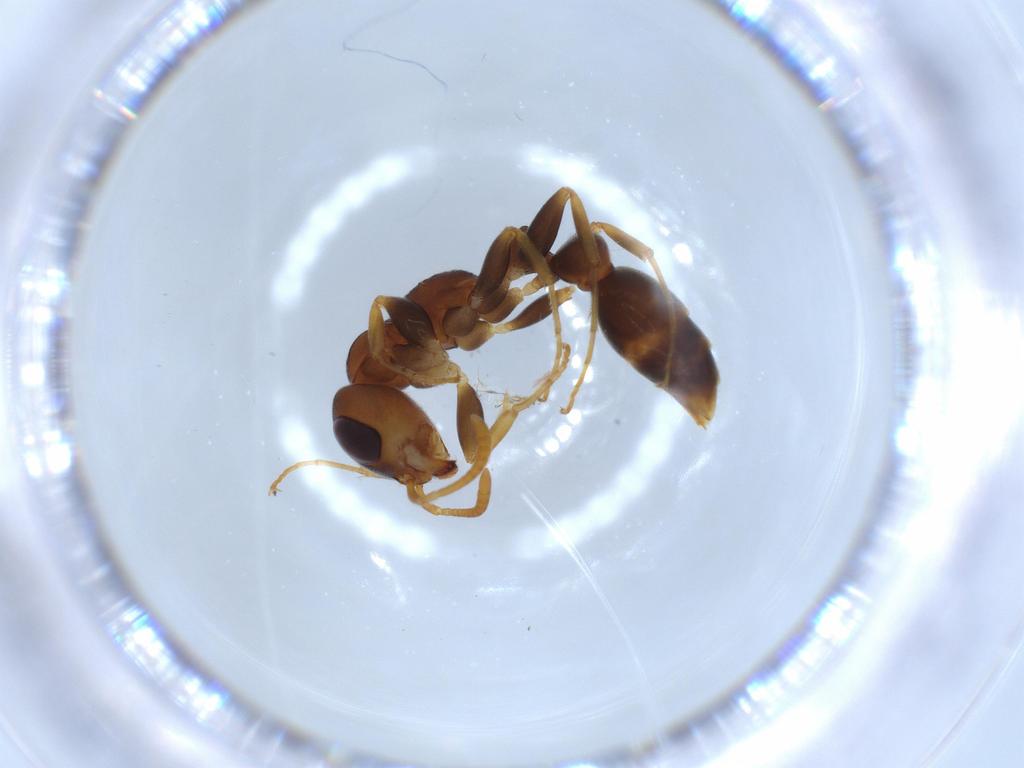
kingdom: Animalia
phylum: Arthropoda
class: Insecta
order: Hymenoptera
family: Formicidae
